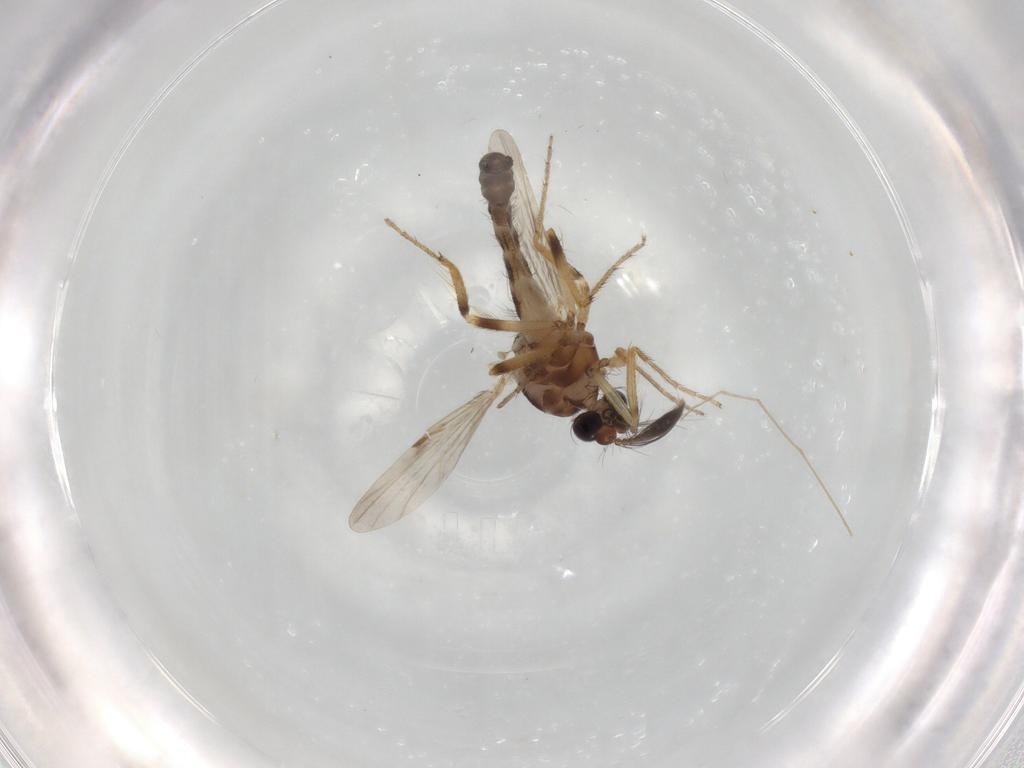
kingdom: Animalia
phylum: Arthropoda
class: Insecta
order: Diptera
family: Ceratopogonidae
